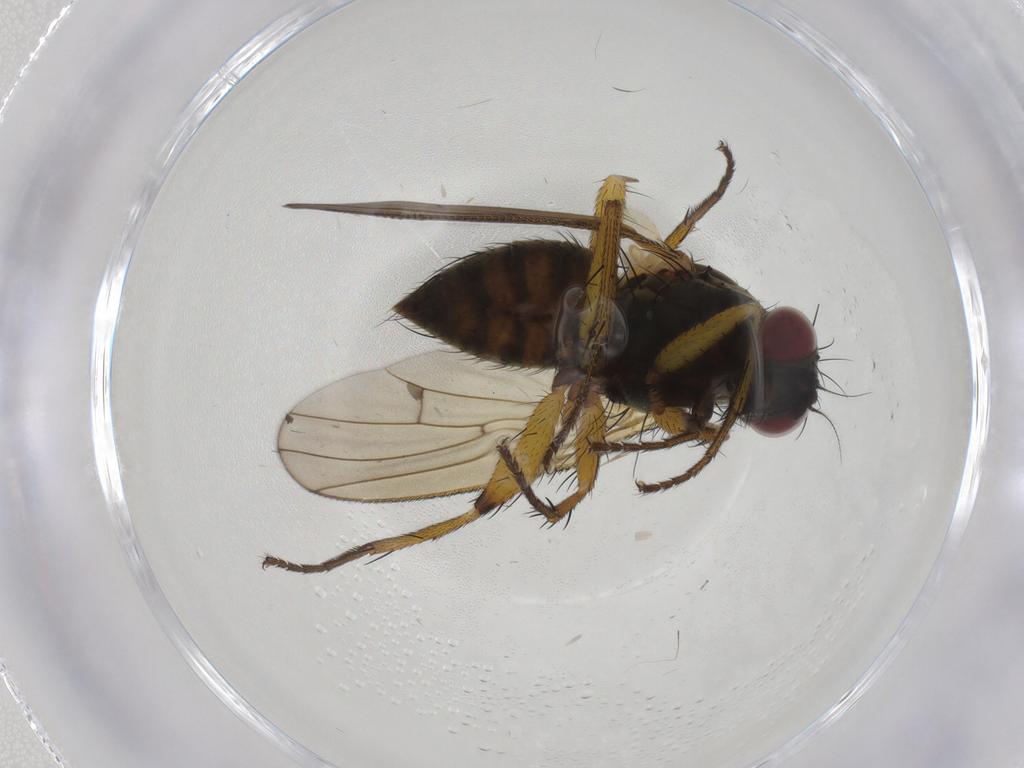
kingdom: Animalia
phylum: Arthropoda
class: Insecta
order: Diptera
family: Muscidae
